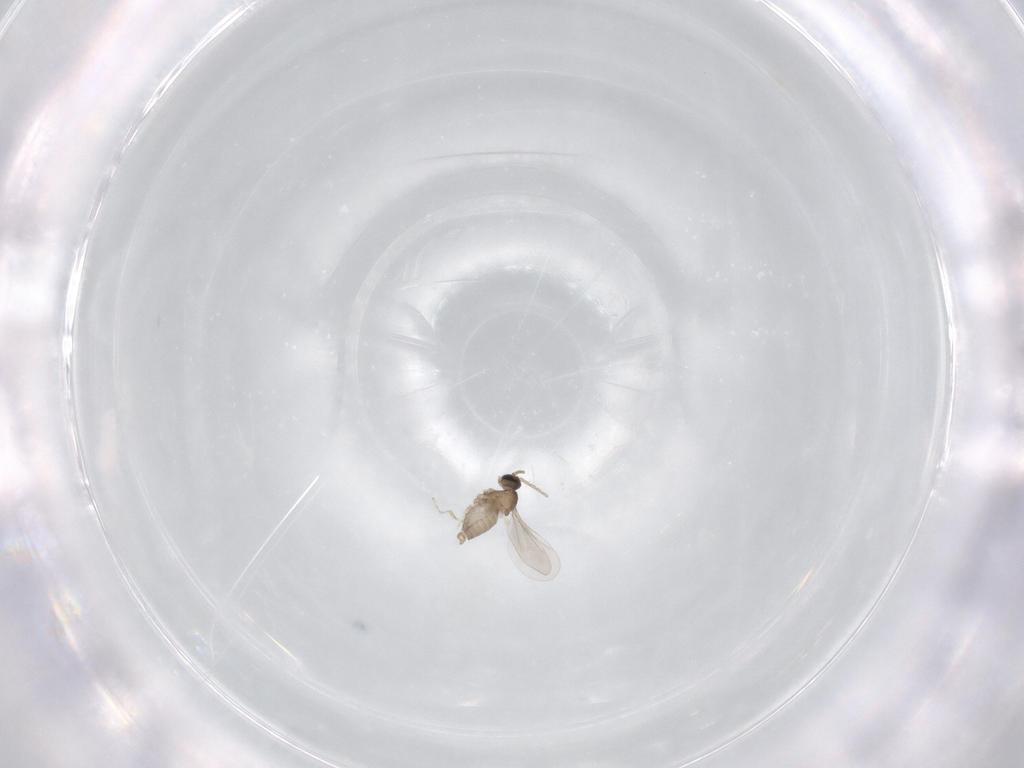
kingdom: Animalia
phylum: Arthropoda
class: Insecta
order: Diptera
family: Cecidomyiidae
